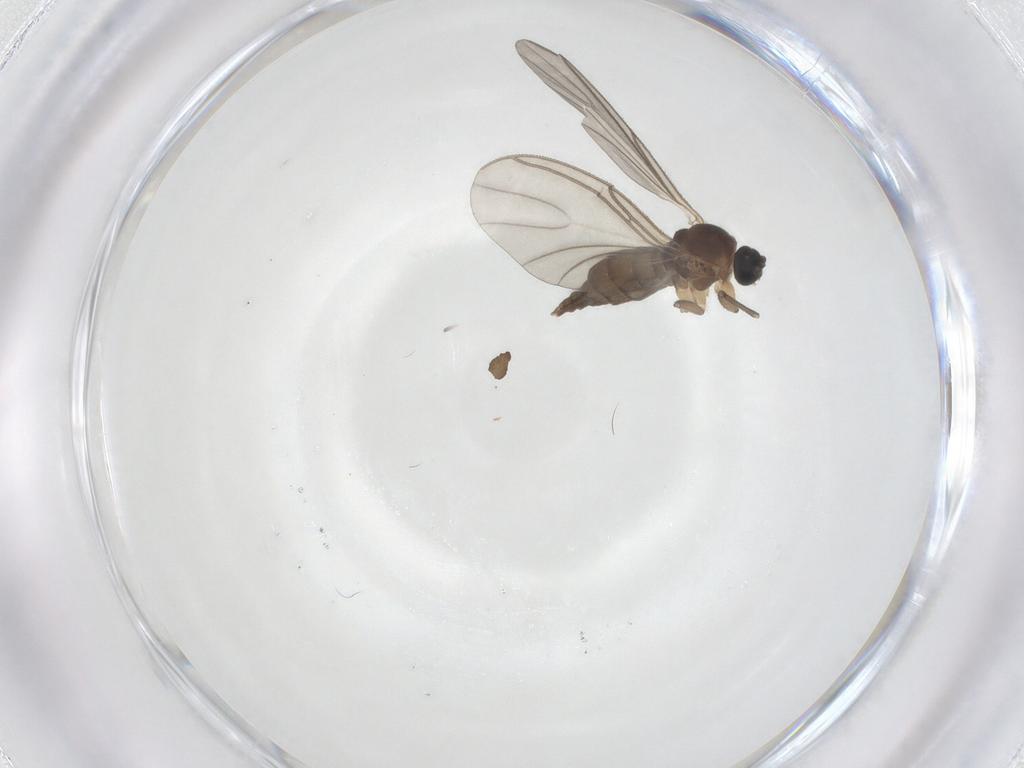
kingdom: Animalia
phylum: Arthropoda
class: Insecta
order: Diptera
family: Sciaridae
